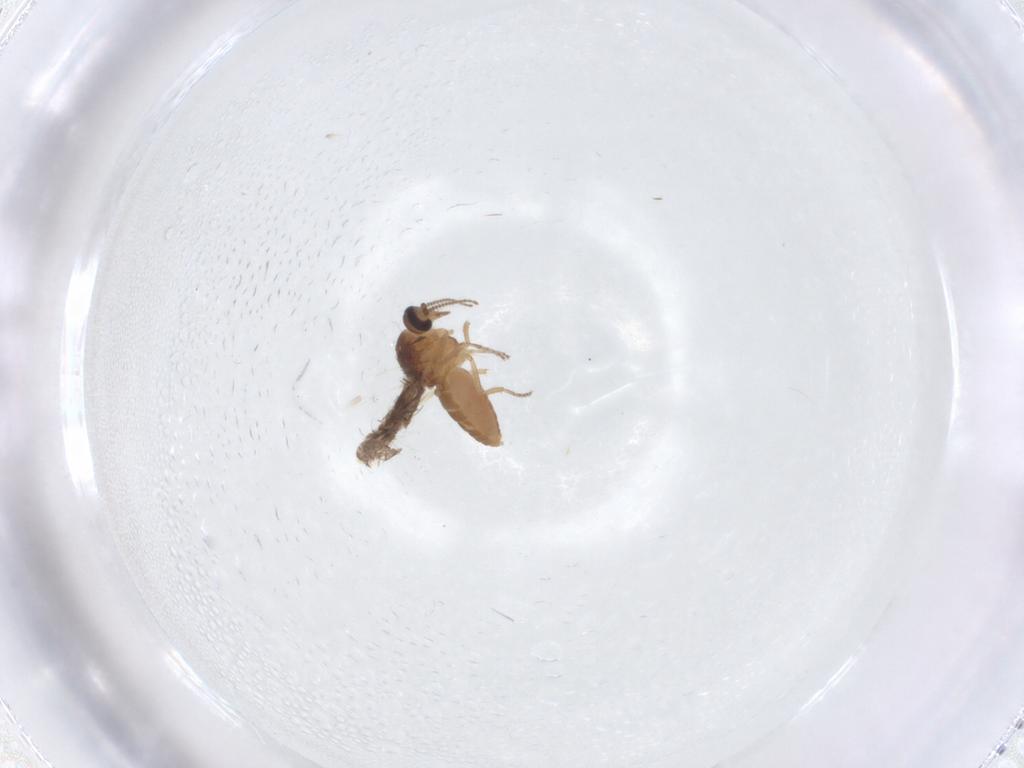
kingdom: Animalia
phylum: Arthropoda
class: Insecta
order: Diptera
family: Ceratopogonidae
